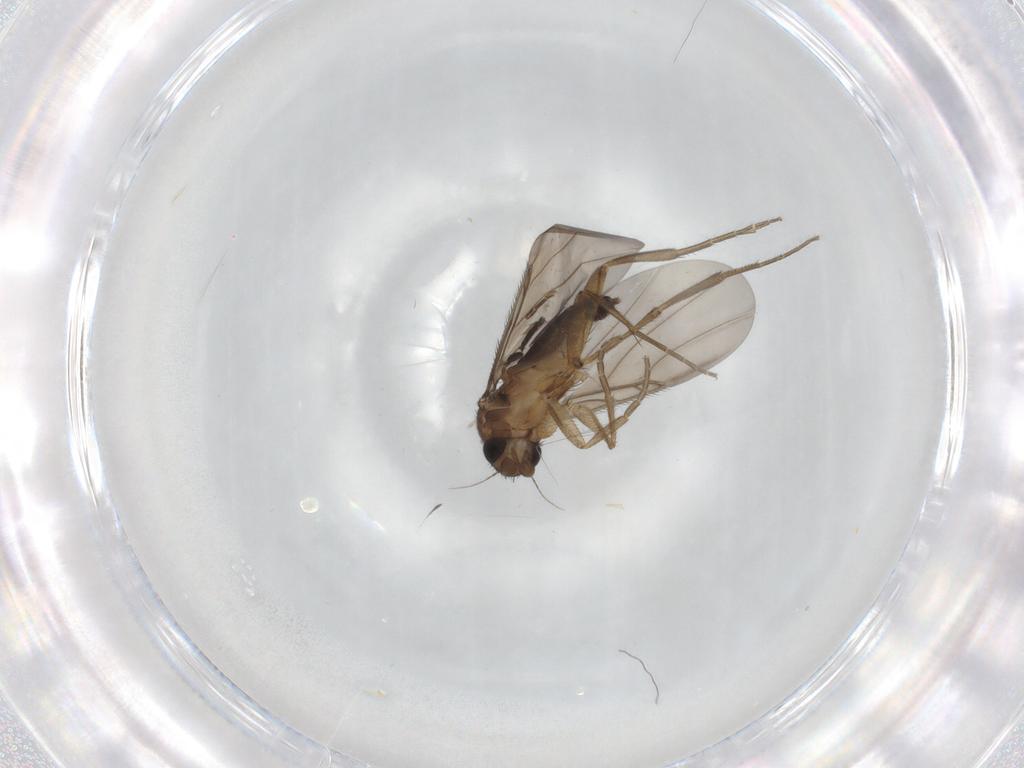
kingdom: Animalia
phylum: Arthropoda
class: Insecta
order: Diptera
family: Phoridae
